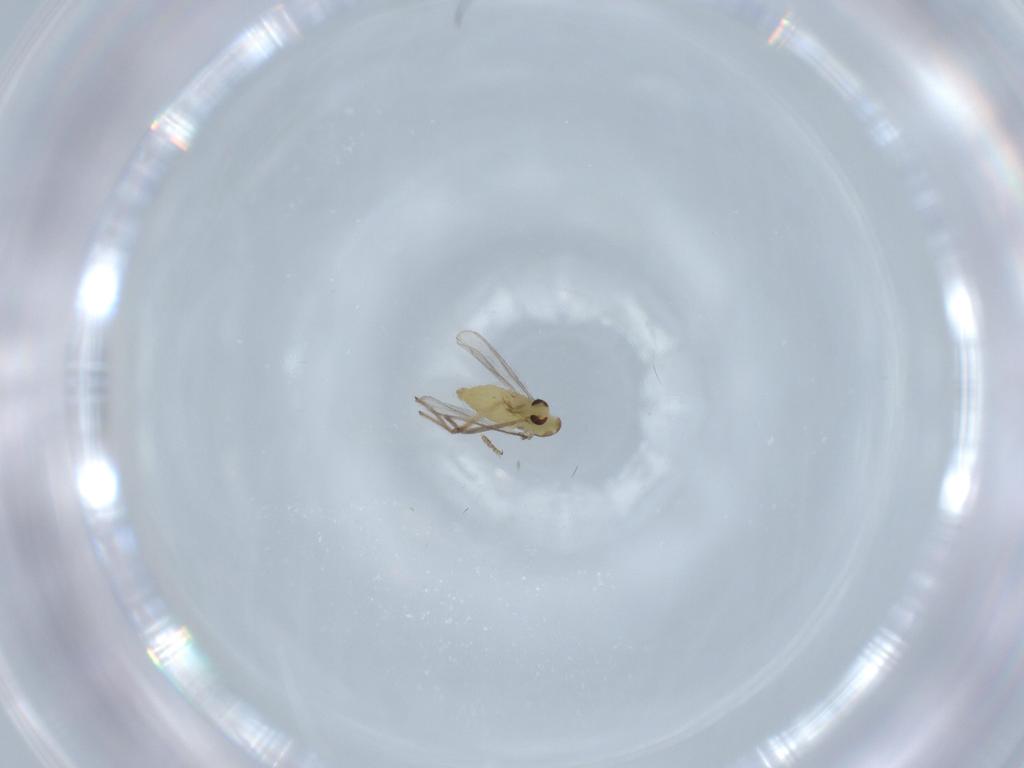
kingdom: Animalia
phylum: Arthropoda
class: Insecta
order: Diptera
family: Chironomidae
